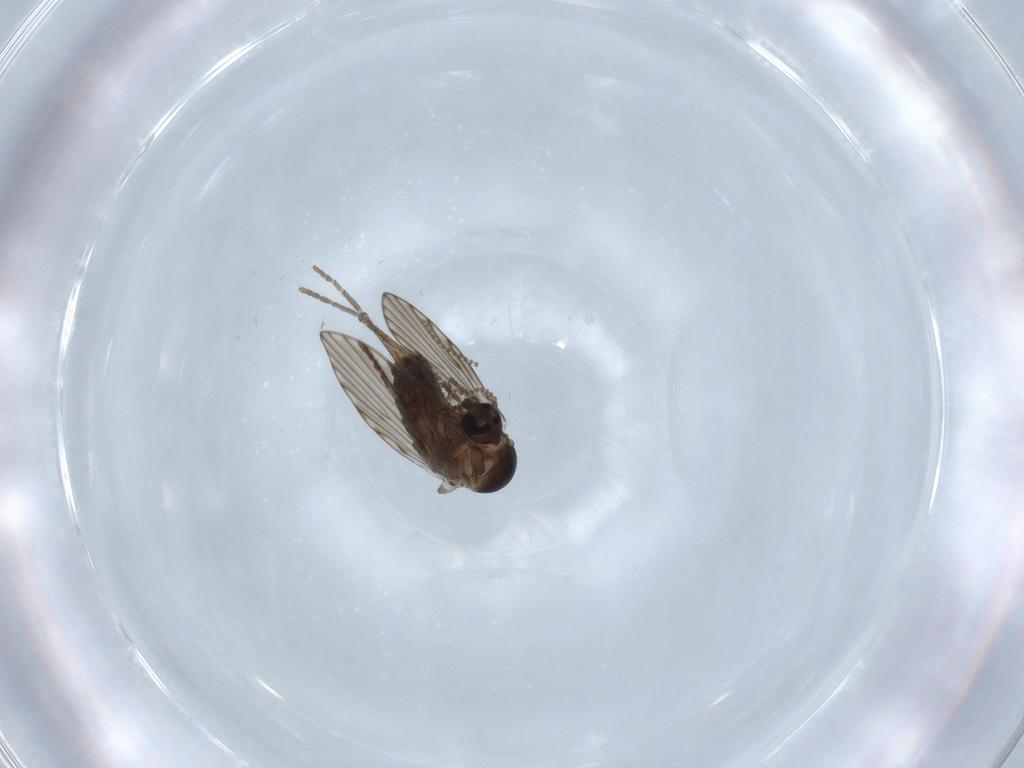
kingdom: Animalia
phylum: Arthropoda
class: Insecta
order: Diptera
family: Psychodidae
